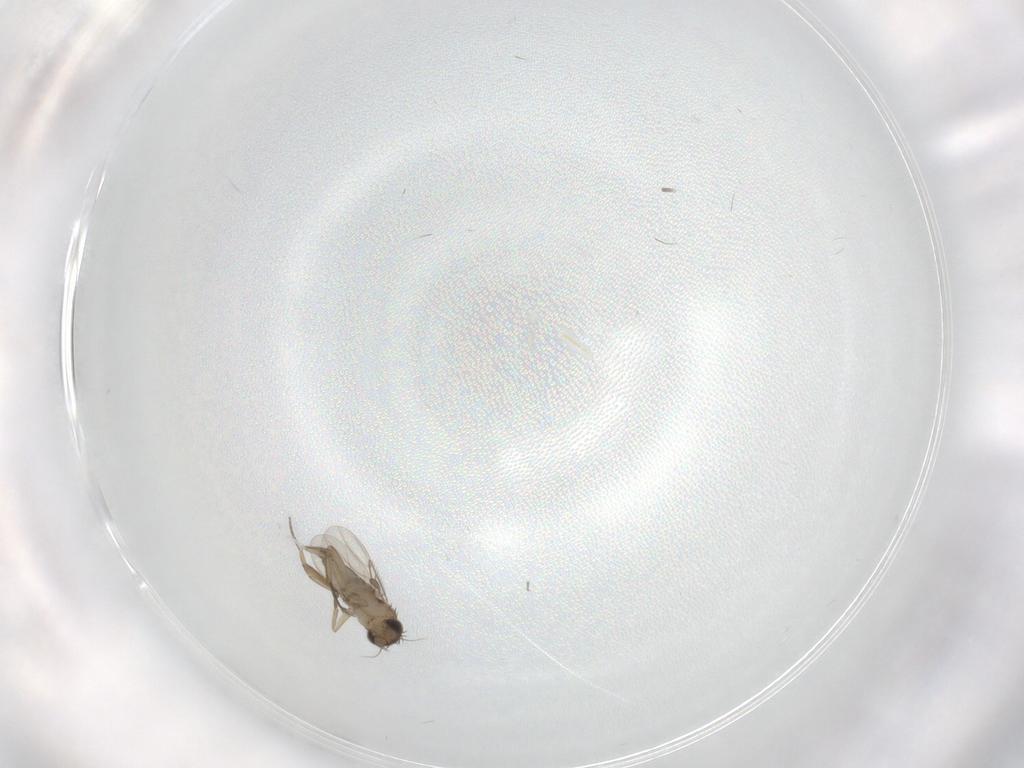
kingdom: Animalia
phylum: Arthropoda
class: Insecta
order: Diptera
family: Phoridae
